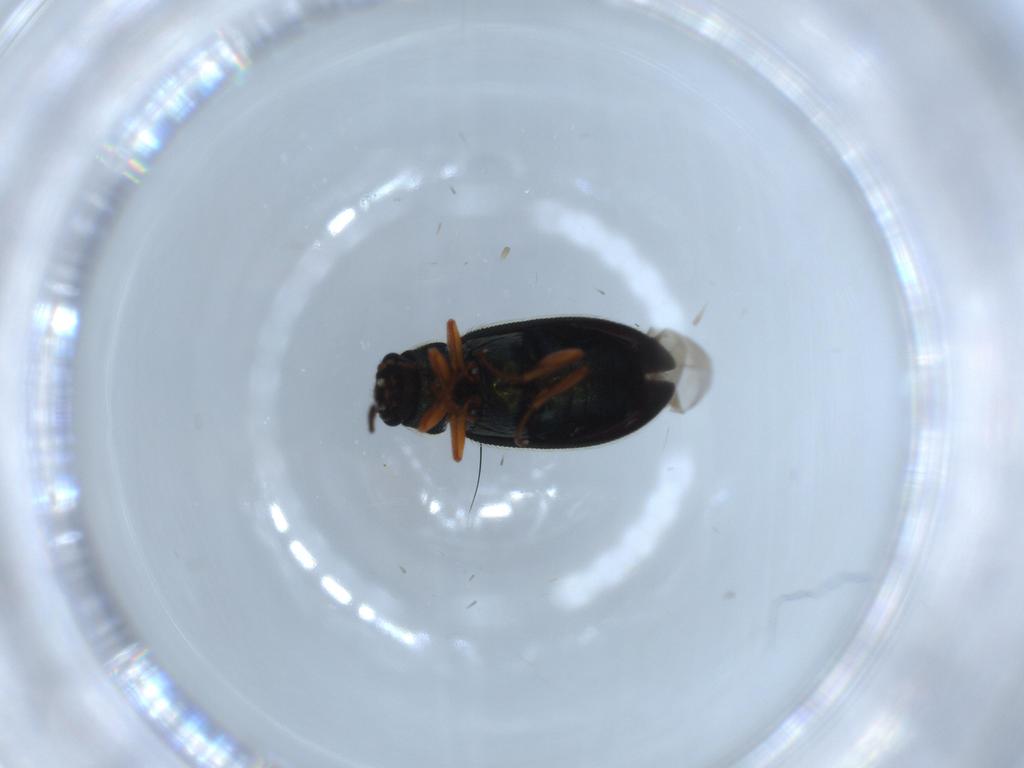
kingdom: Animalia
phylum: Arthropoda
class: Insecta
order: Coleoptera
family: Melyridae
